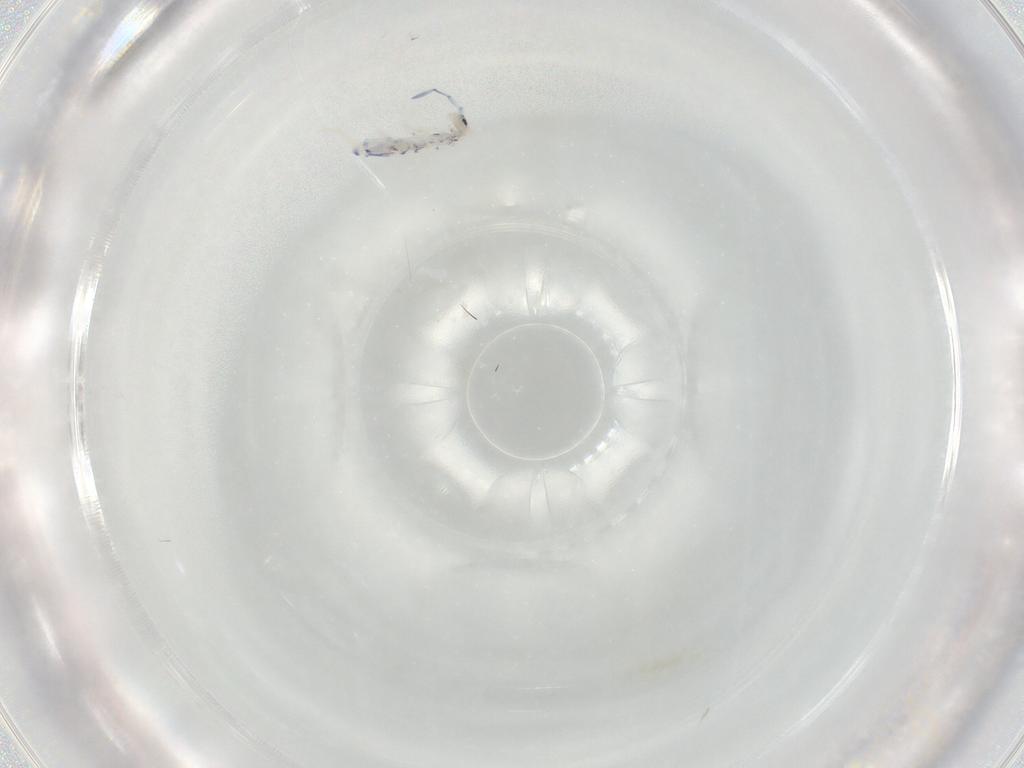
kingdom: Animalia
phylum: Arthropoda
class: Collembola
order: Entomobryomorpha
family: Entomobryidae
